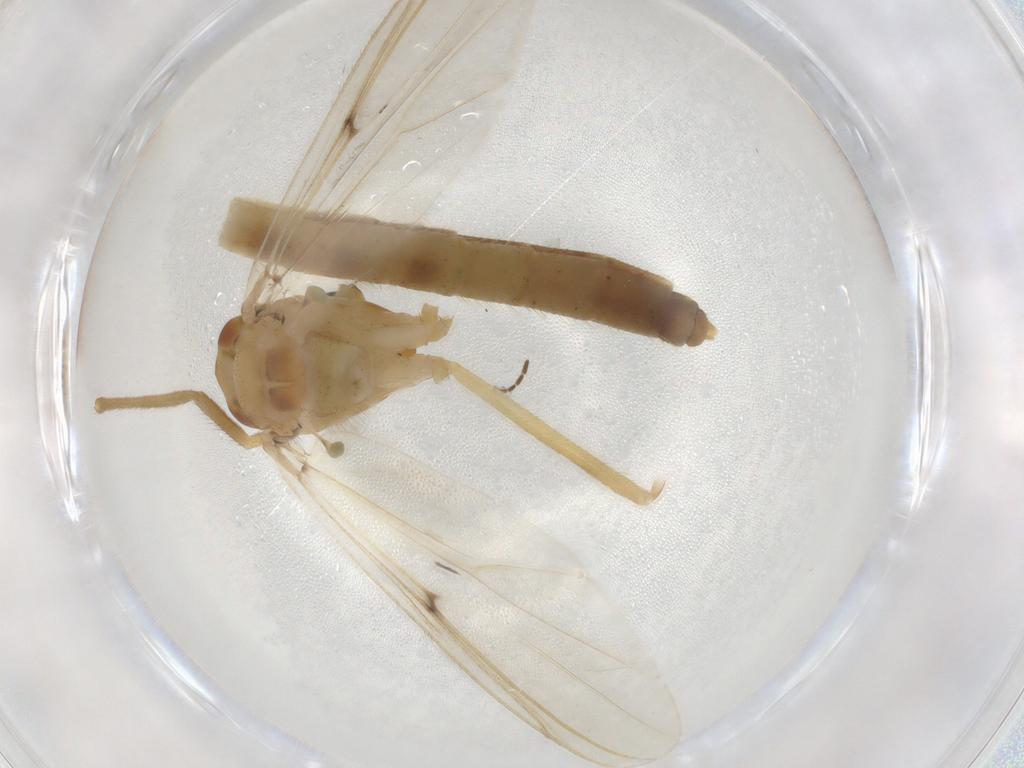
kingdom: Animalia
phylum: Arthropoda
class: Insecta
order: Diptera
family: Chironomidae
